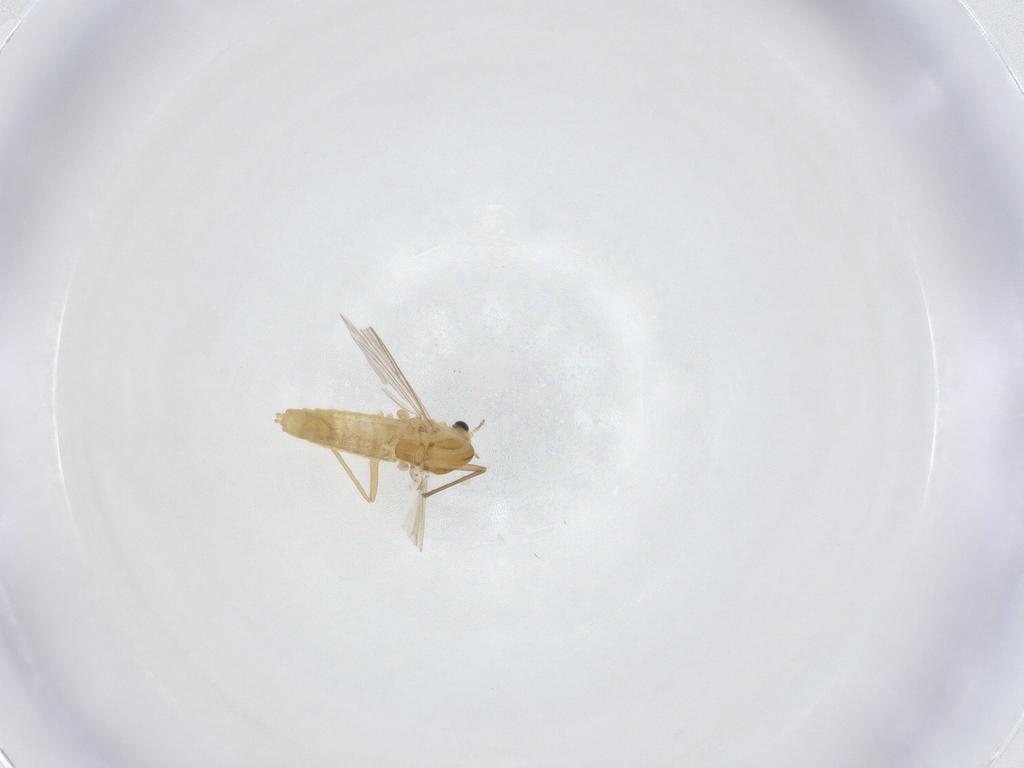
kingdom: Animalia
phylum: Arthropoda
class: Insecta
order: Diptera
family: Chironomidae
